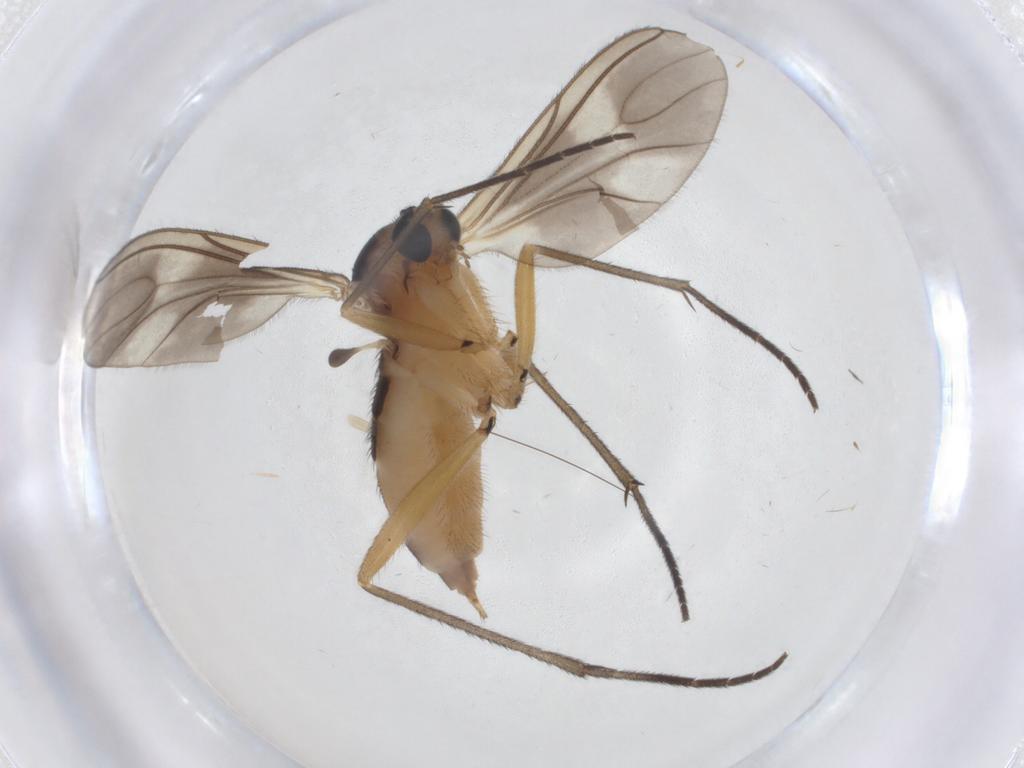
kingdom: Animalia
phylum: Arthropoda
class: Insecta
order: Diptera
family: Sciaridae
